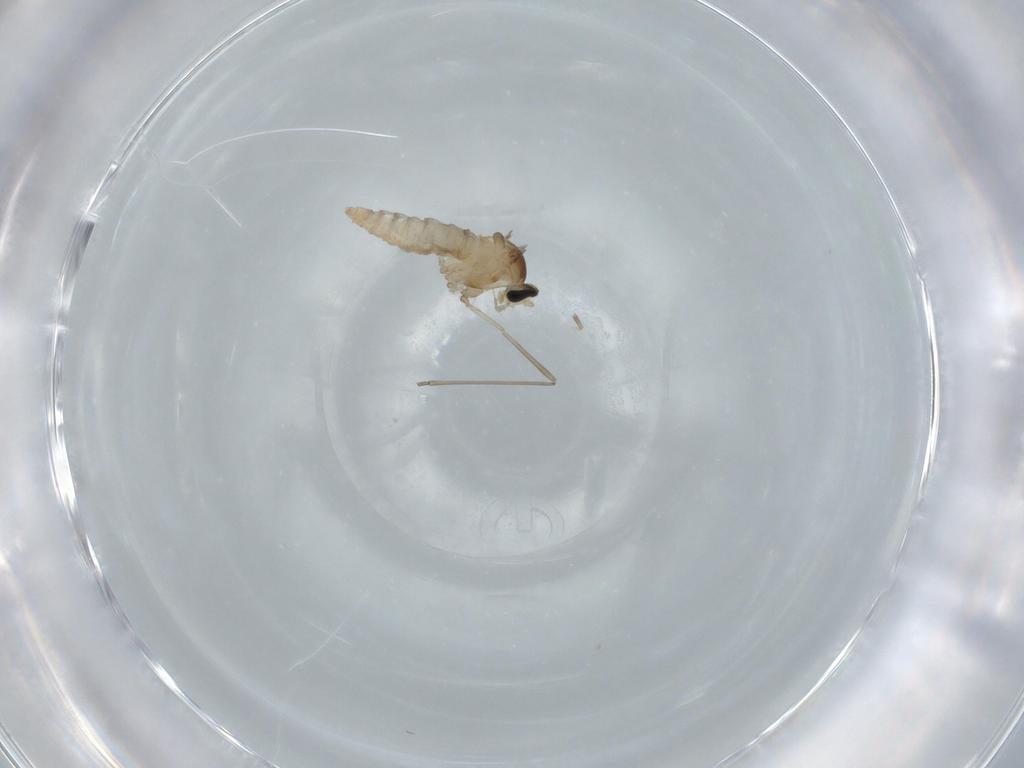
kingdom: Animalia
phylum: Arthropoda
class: Insecta
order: Diptera
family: Cecidomyiidae
